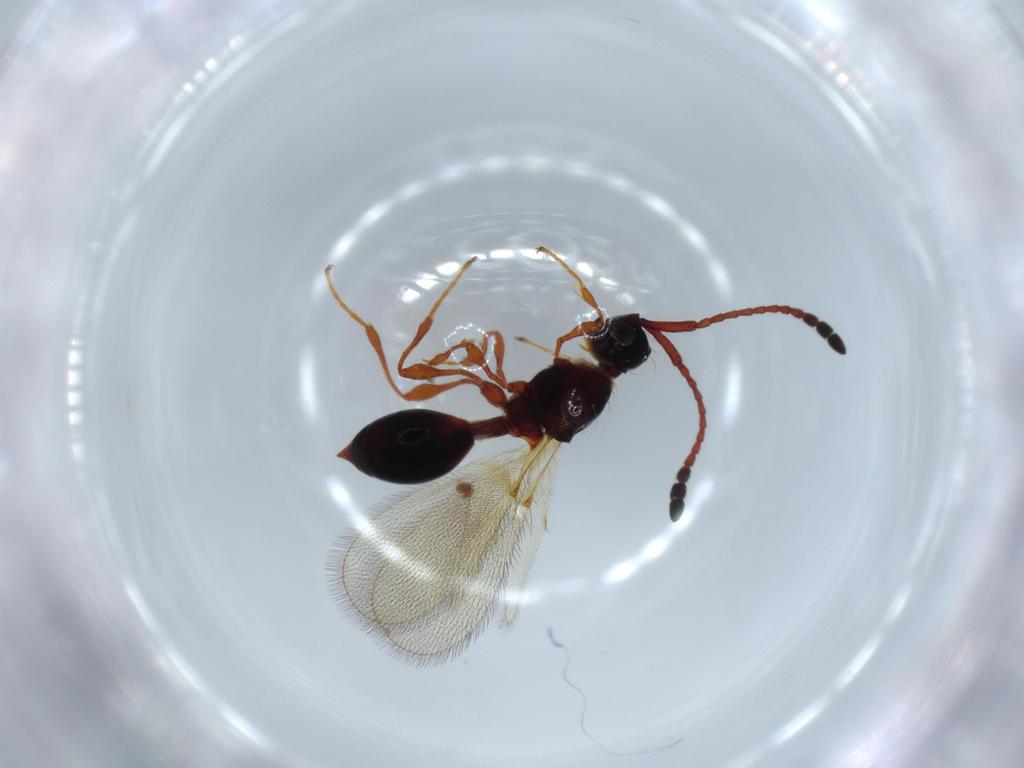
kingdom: Animalia
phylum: Arthropoda
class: Insecta
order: Hymenoptera
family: Diapriidae
